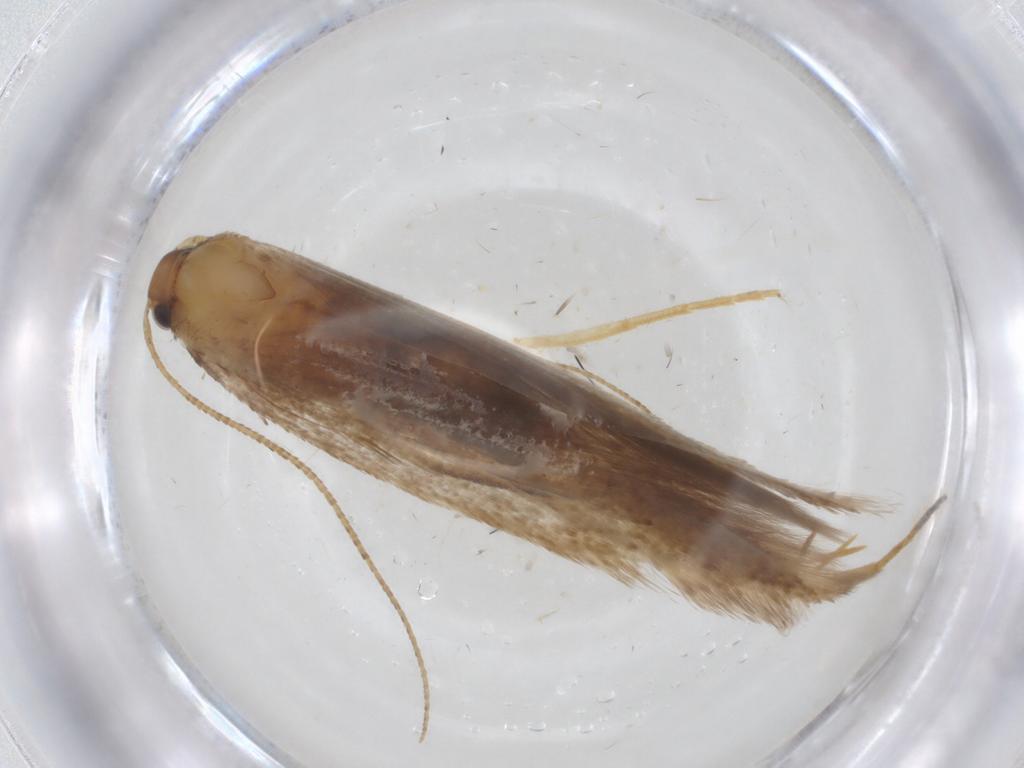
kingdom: Animalia
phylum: Arthropoda
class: Insecta
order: Lepidoptera
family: Gelechiidae
